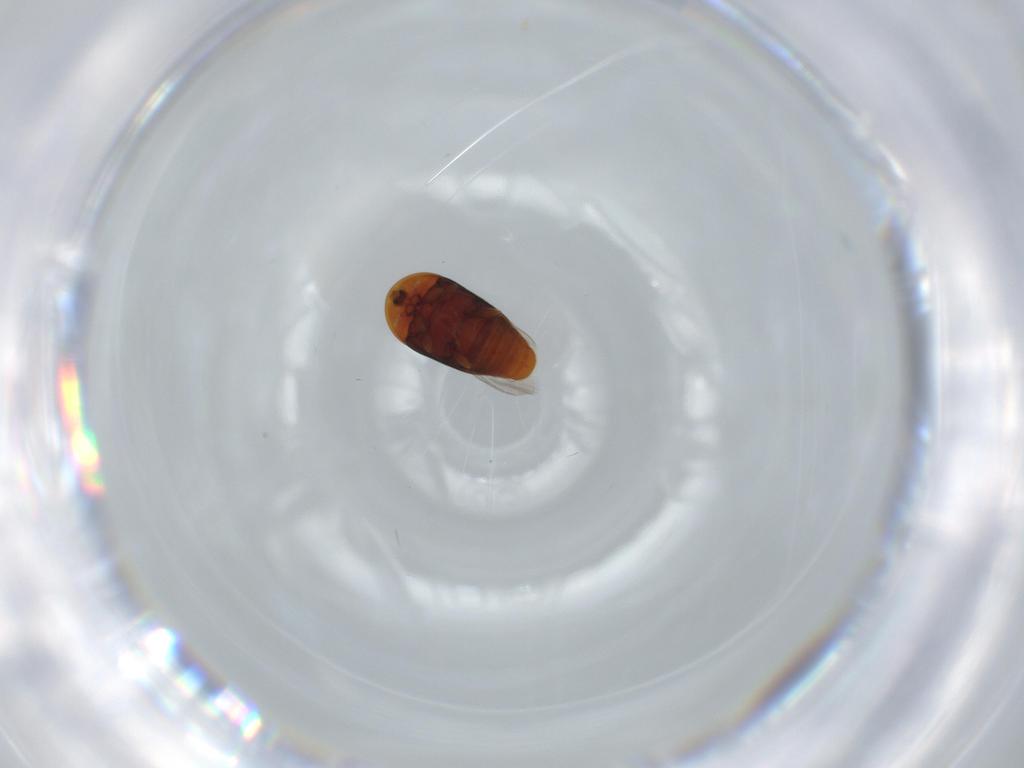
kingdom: Animalia
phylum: Arthropoda
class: Insecta
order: Coleoptera
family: Corylophidae
